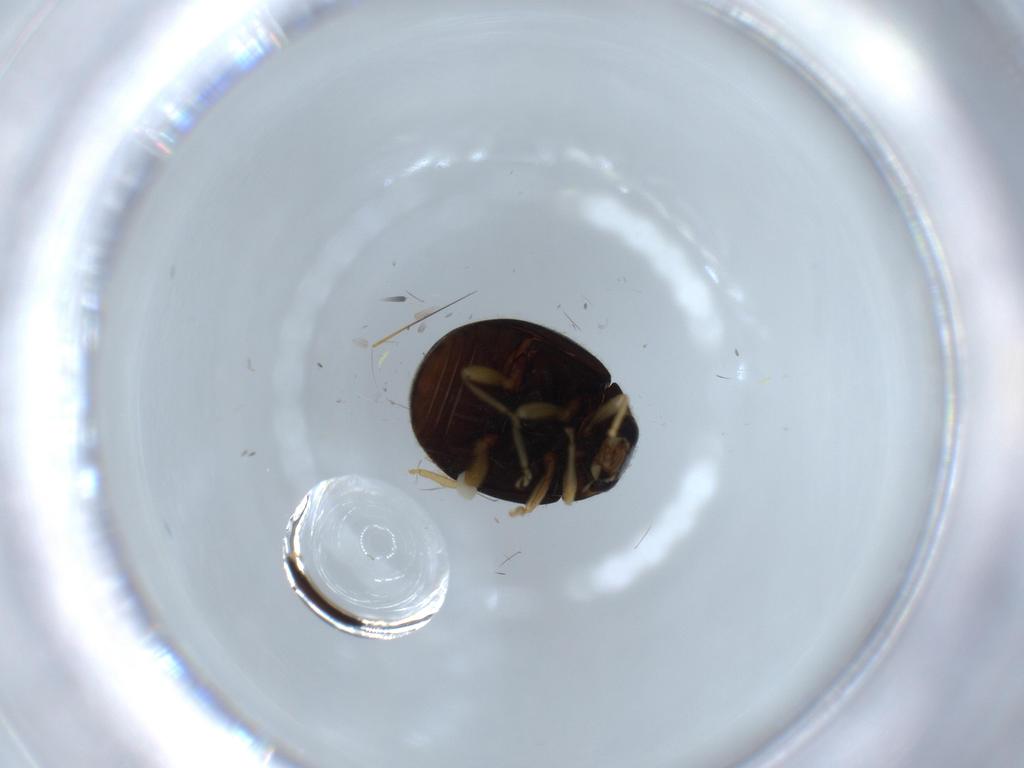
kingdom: Animalia
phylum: Arthropoda
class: Insecta
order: Coleoptera
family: Coccinellidae
